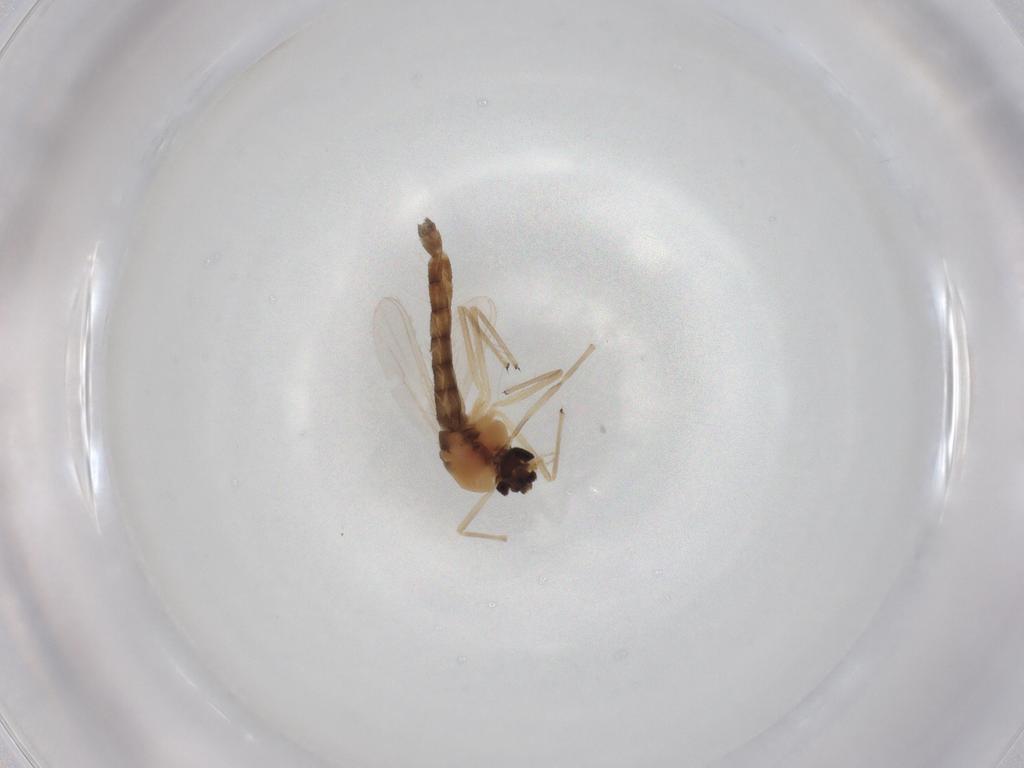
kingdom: Animalia
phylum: Arthropoda
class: Insecta
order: Diptera
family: Chironomidae
